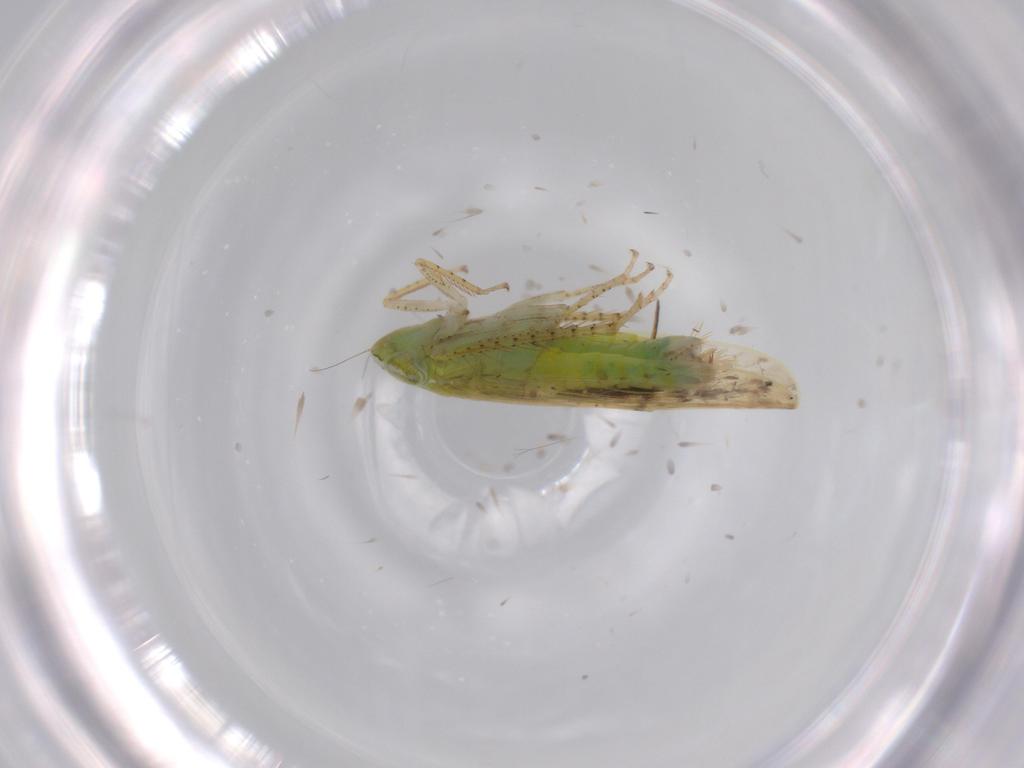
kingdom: Animalia
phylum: Arthropoda
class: Insecta
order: Hemiptera
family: Cicadellidae
